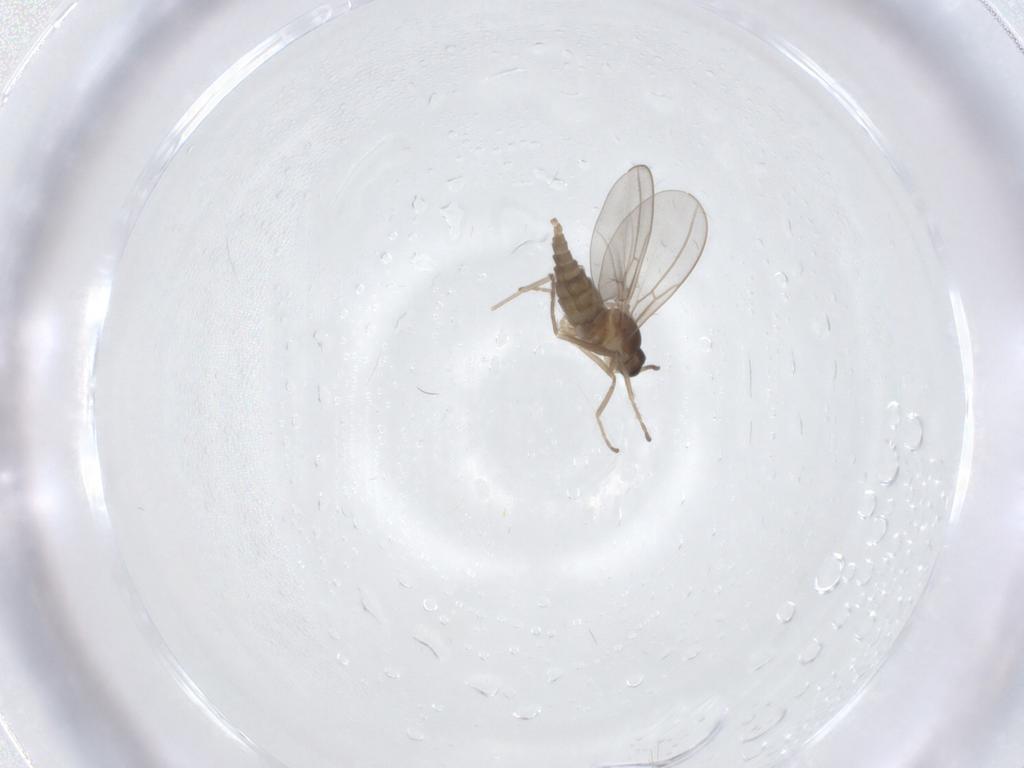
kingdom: Animalia
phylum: Arthropoda
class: Insecta
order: Diptera
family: Cecidomyiidae
